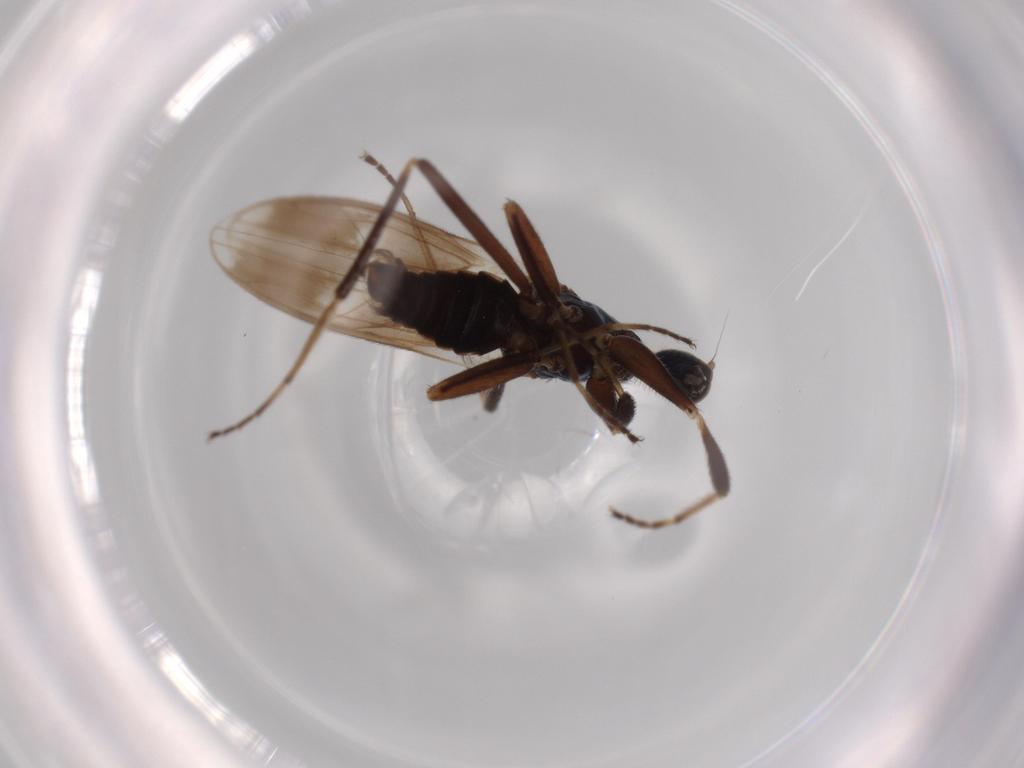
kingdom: Animalia
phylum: Arthropoda
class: Insecta
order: Diptera
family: Hybotidae
